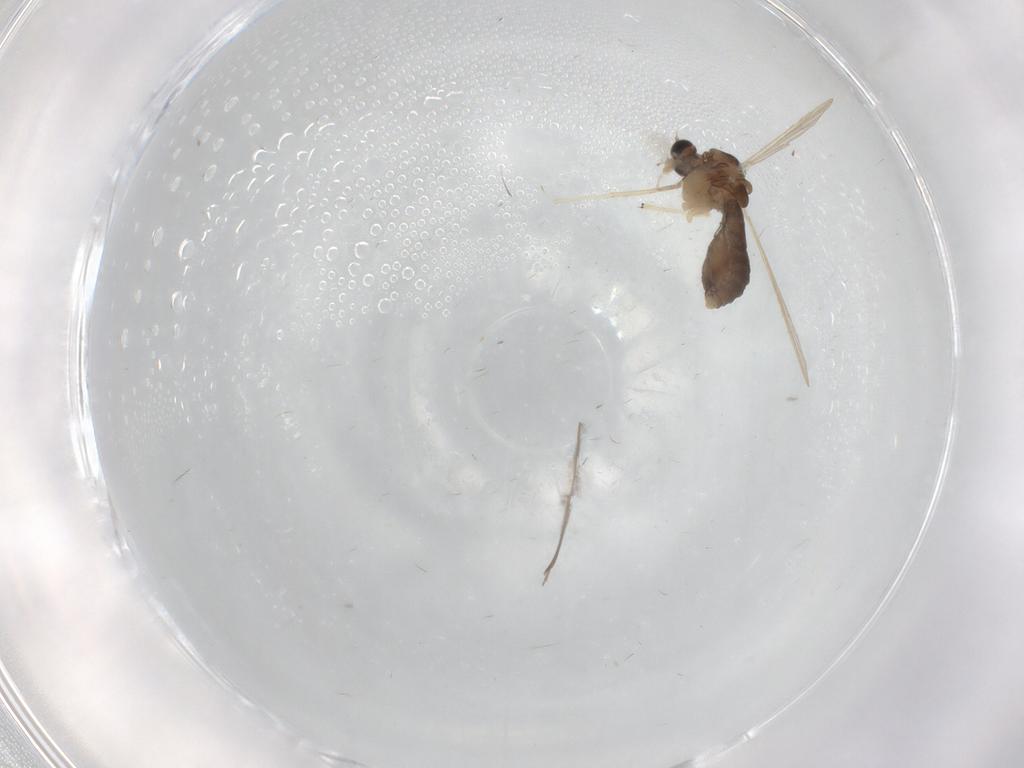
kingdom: Animalia
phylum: Arthropoda
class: Insecta
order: Diptera
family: Chironomidae
